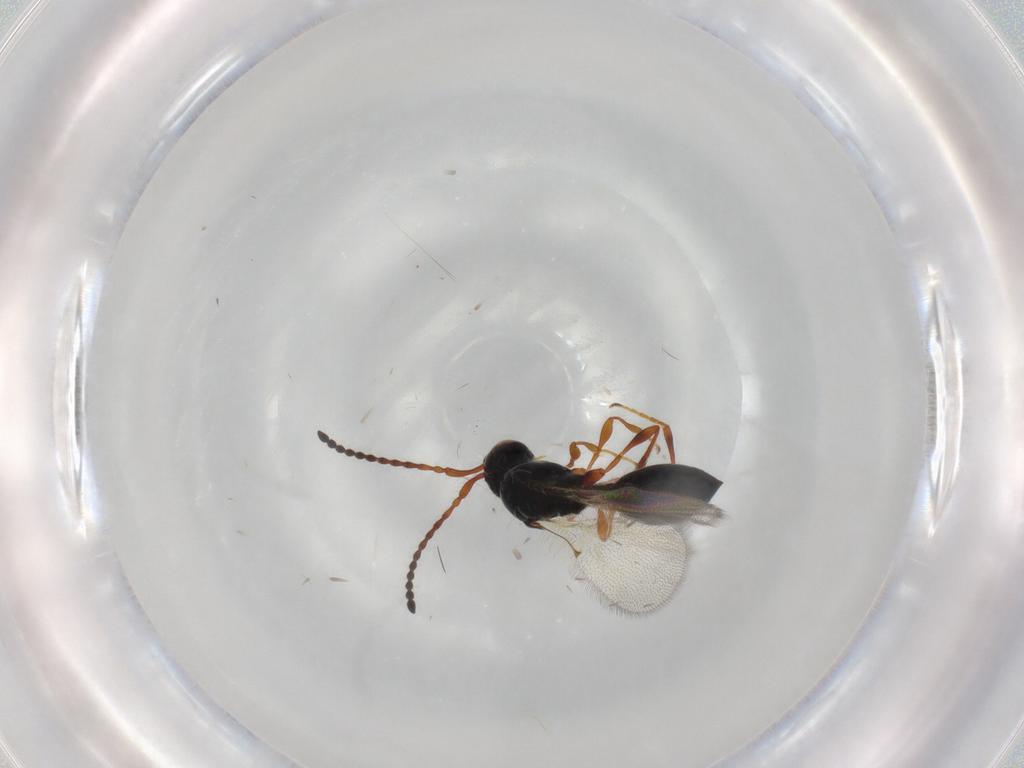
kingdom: Animalia
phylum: Arthropoda
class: Insecta
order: Hymenoptera
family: Diapriidae
